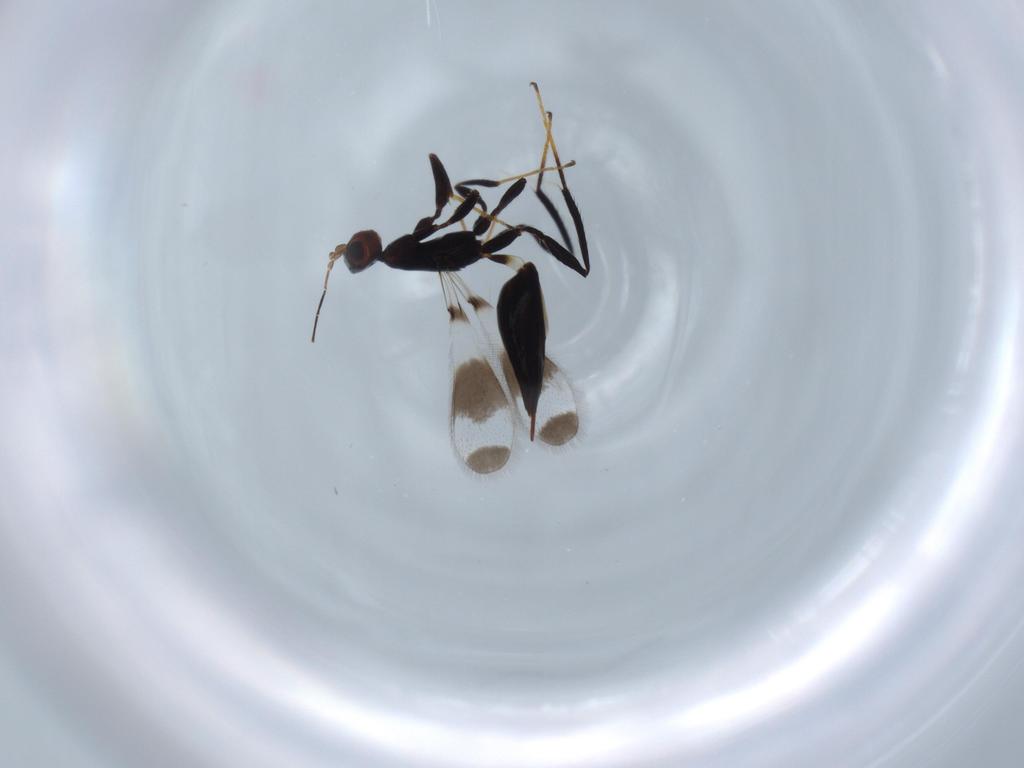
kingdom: Animalia
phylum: Arthropoda
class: Insecta
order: Hymenoptera
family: Mymaridae
